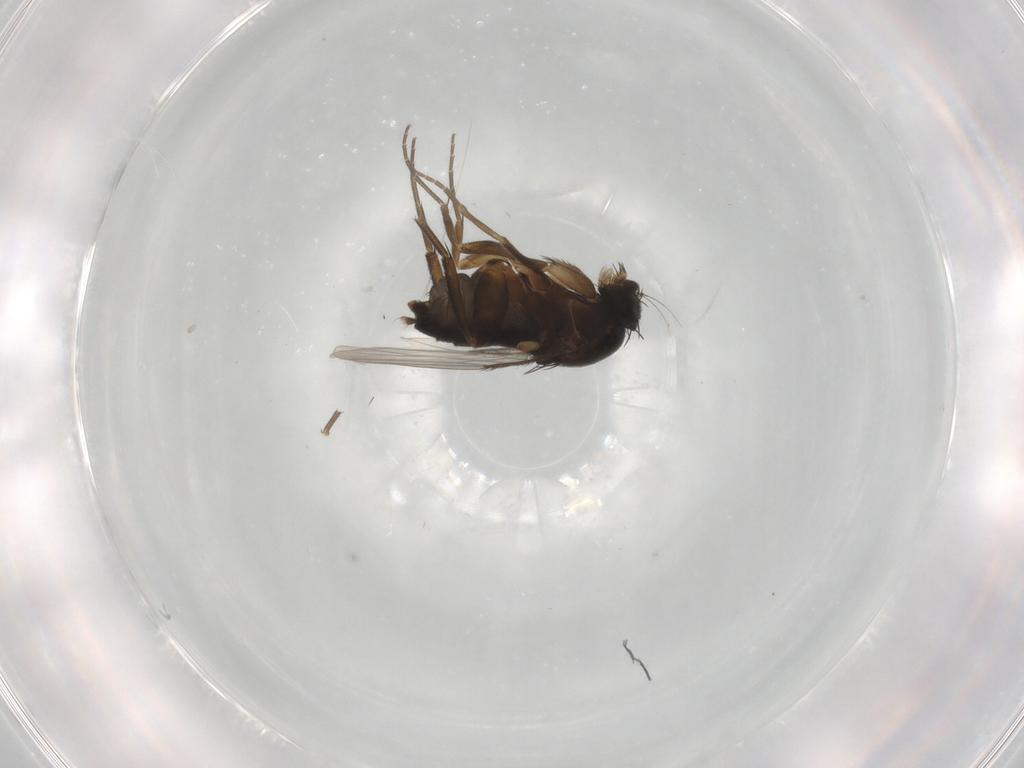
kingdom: Animalia
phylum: Arthropoda
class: Insecta
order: Diptera
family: Phoridae
